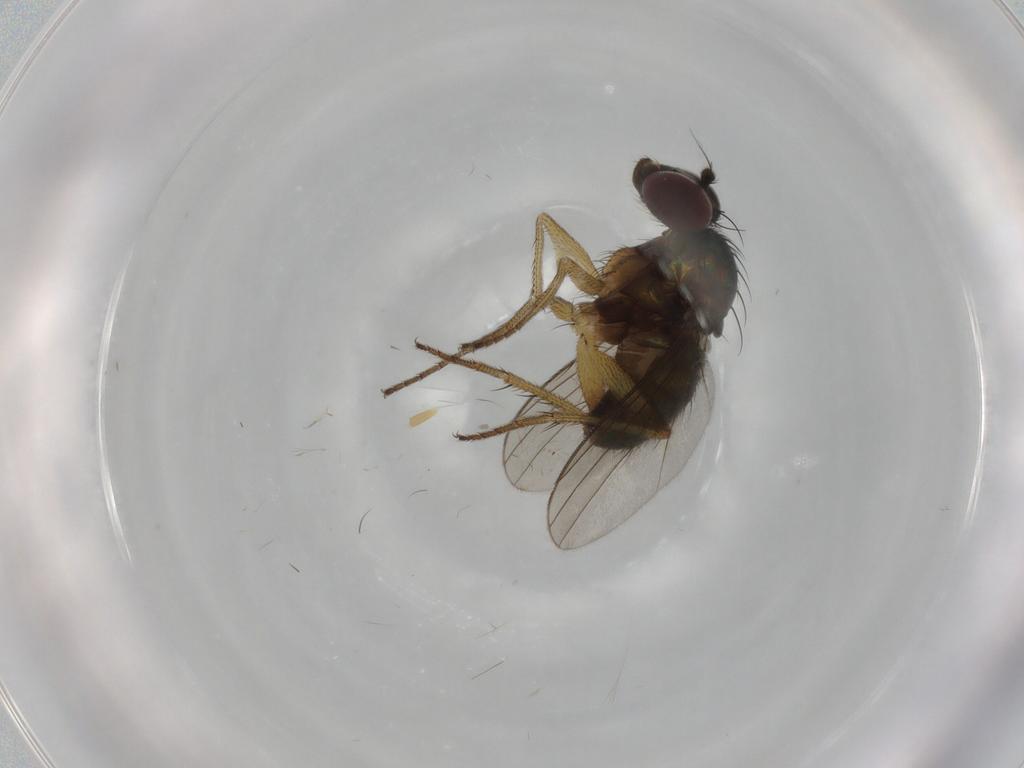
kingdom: Animalia
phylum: Arthropoda
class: Insecta
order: Diptera
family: Dolichopodidae
